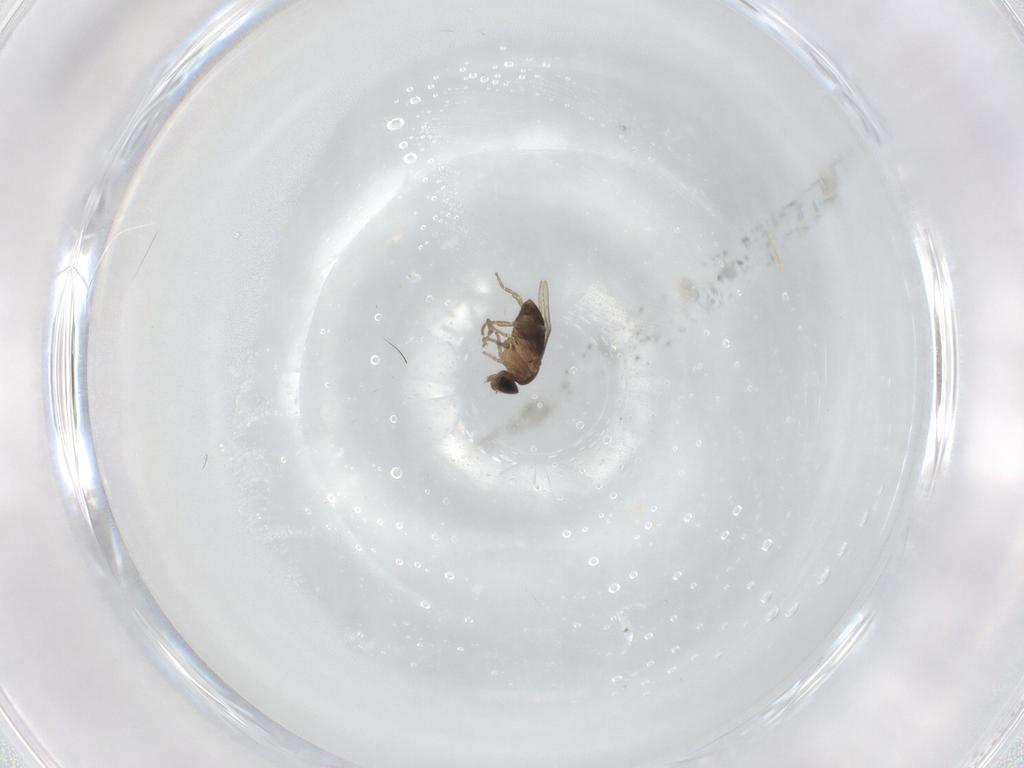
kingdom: Animalia
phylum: Arthropoda
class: Insecta
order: Diptera
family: Phoridae
